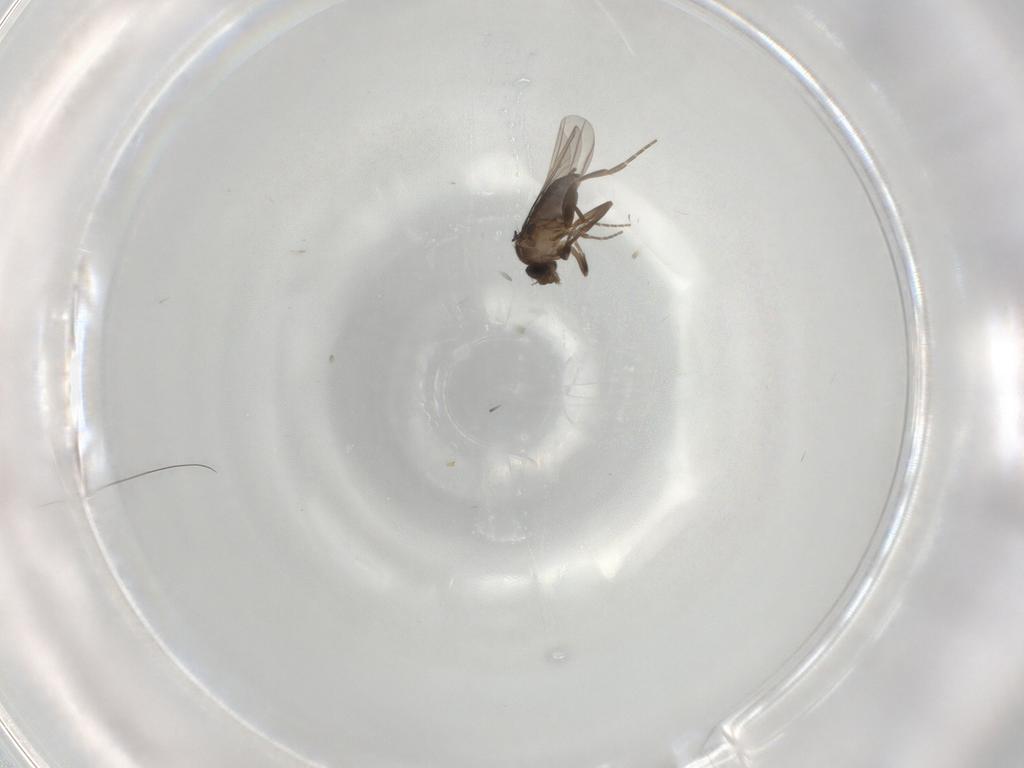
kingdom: Animalia
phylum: Arthropoda
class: Insecta
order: Diptera
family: Phoridae
